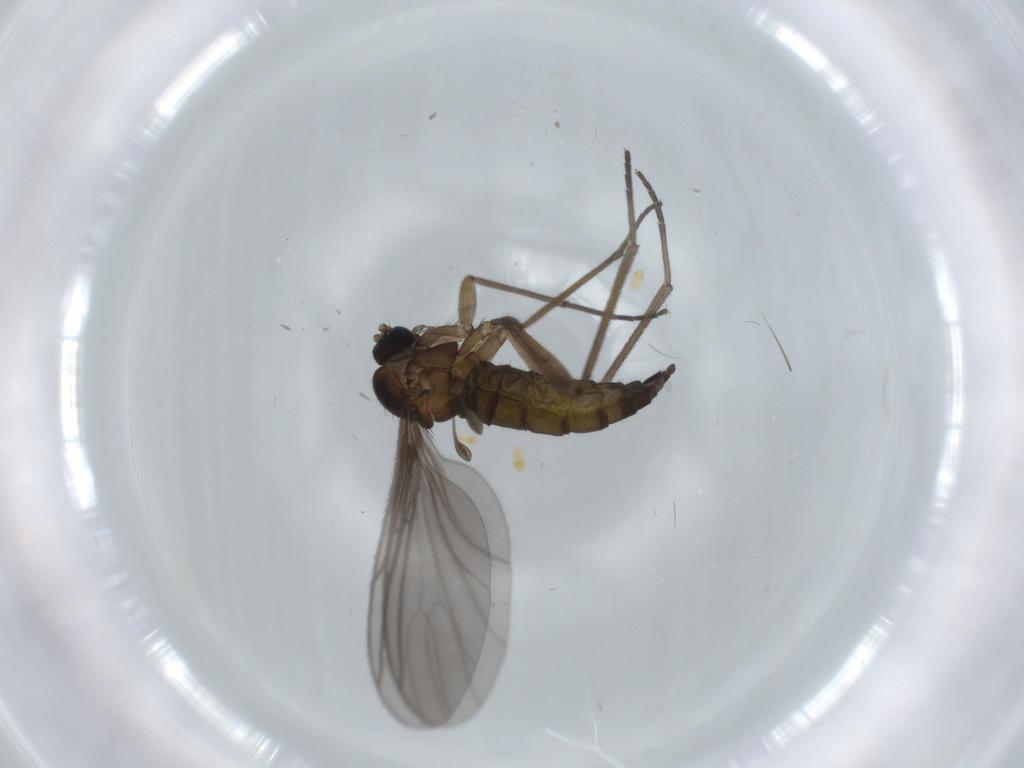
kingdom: Animalia
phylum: Arthropoda
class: Insecta
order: Diptera
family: Sciaridae
